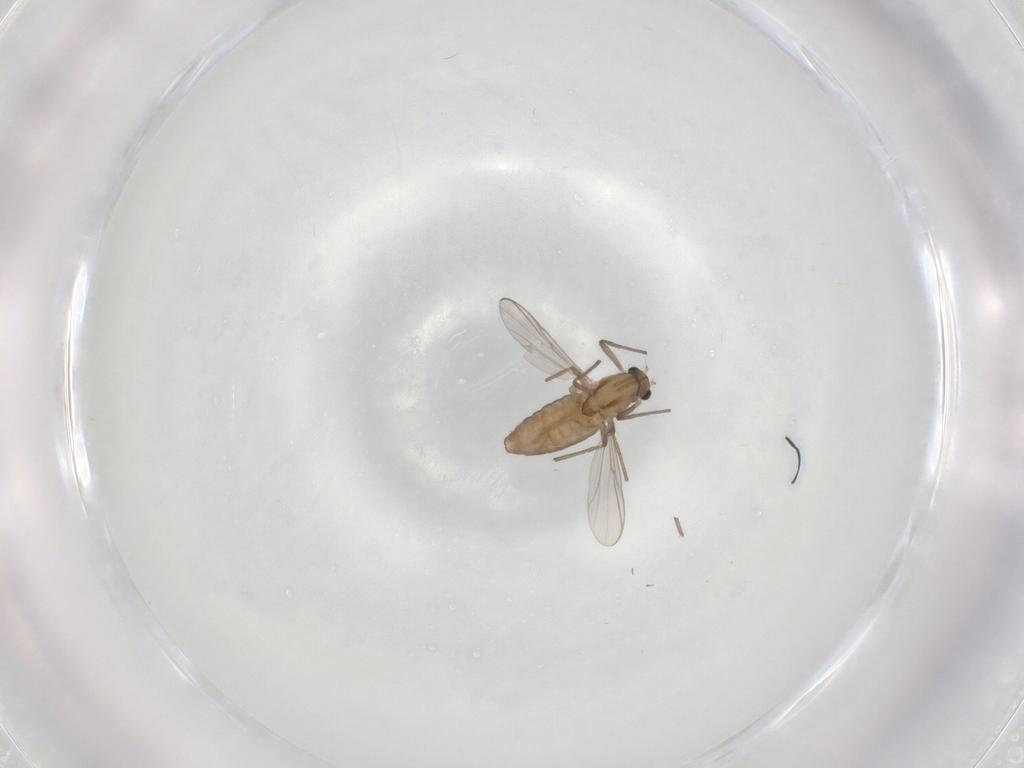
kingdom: Animalia
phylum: Arthropoda
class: Insecta
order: Diptera
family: Chironomidae
